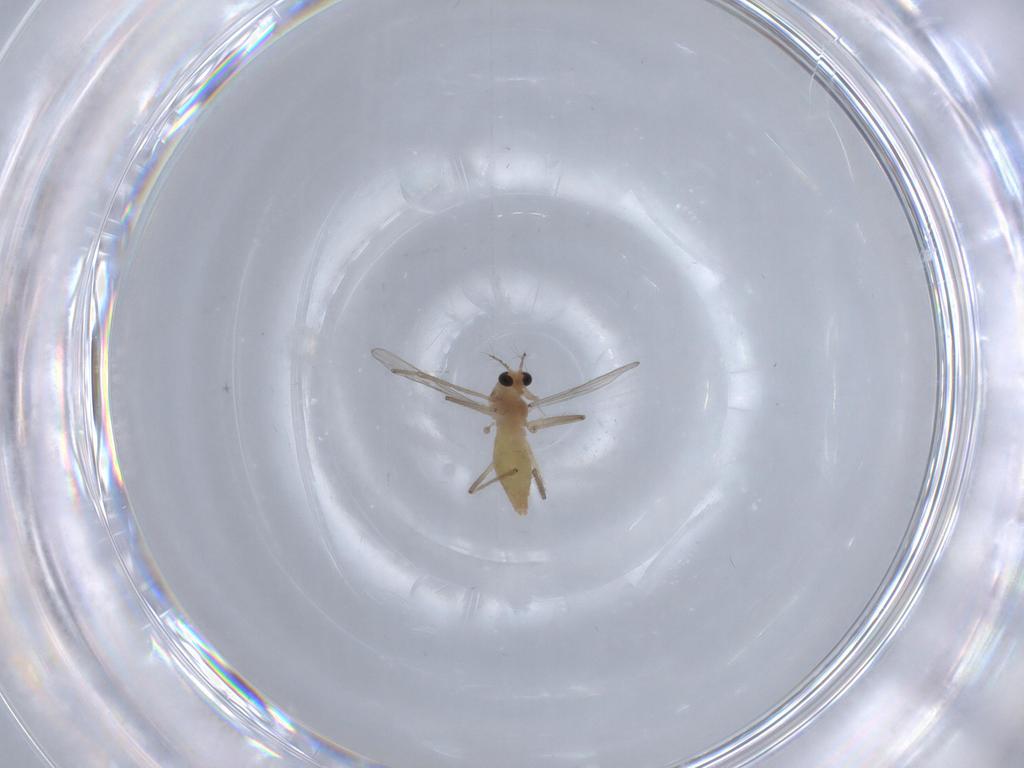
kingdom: Animalia
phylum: Arthropoda
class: Insecta
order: Diptera
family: Chironomidae
